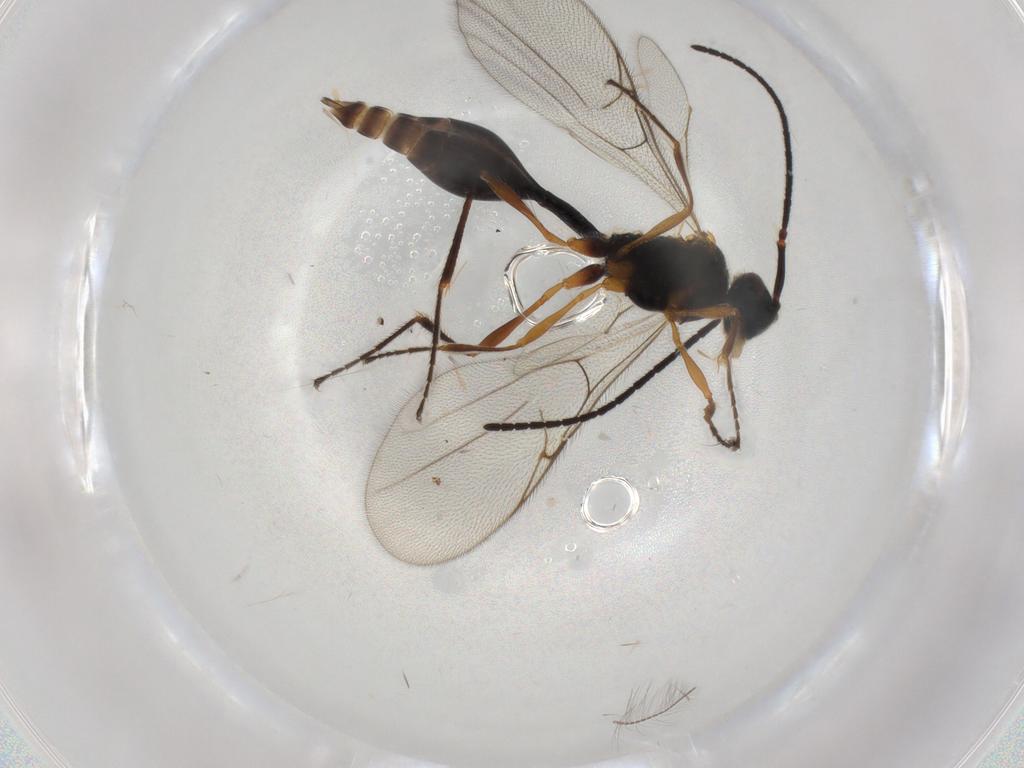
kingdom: Animalia
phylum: Arthropoda
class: Insecta
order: Hymenoptera
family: Diapriidae
